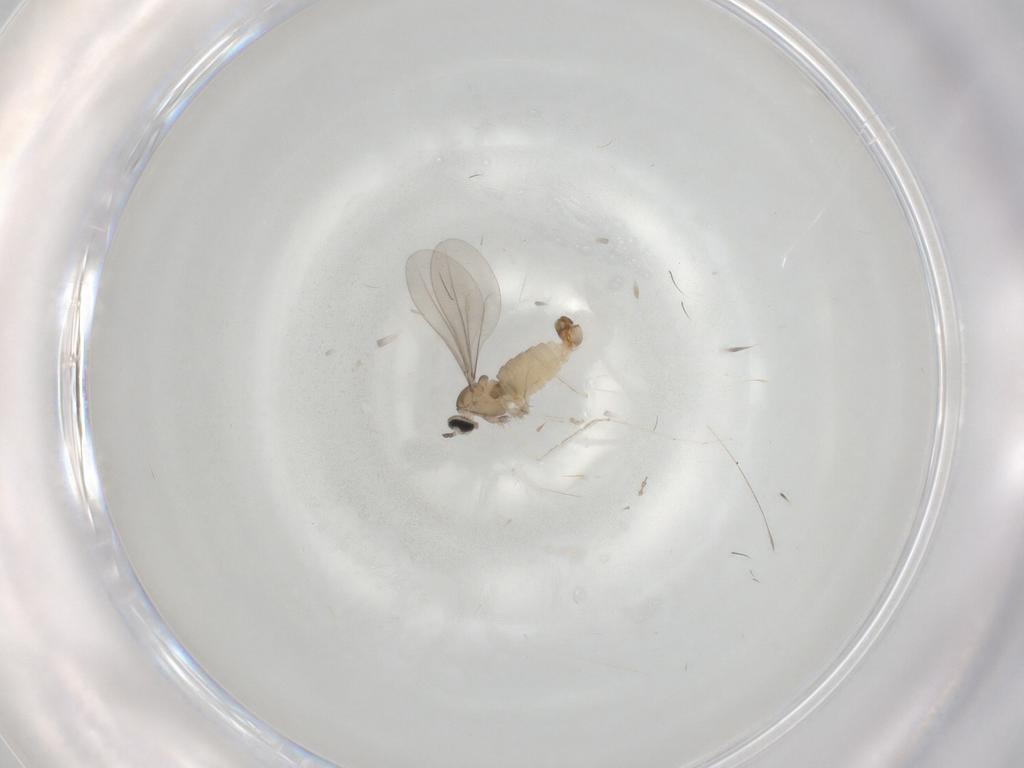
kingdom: Animalia
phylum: Arthropoda
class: Insecta
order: Diptera
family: Cecidomyiidae
